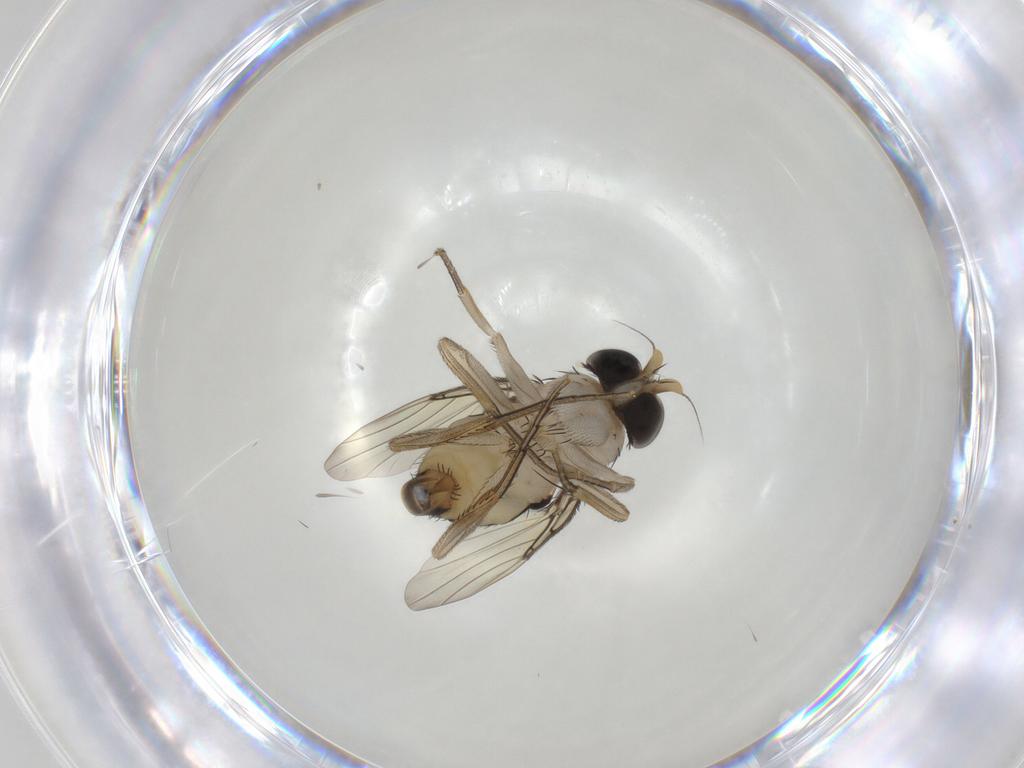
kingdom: Animalia
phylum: Arthropoda
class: Insecta
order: Diptera
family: Phoridae
